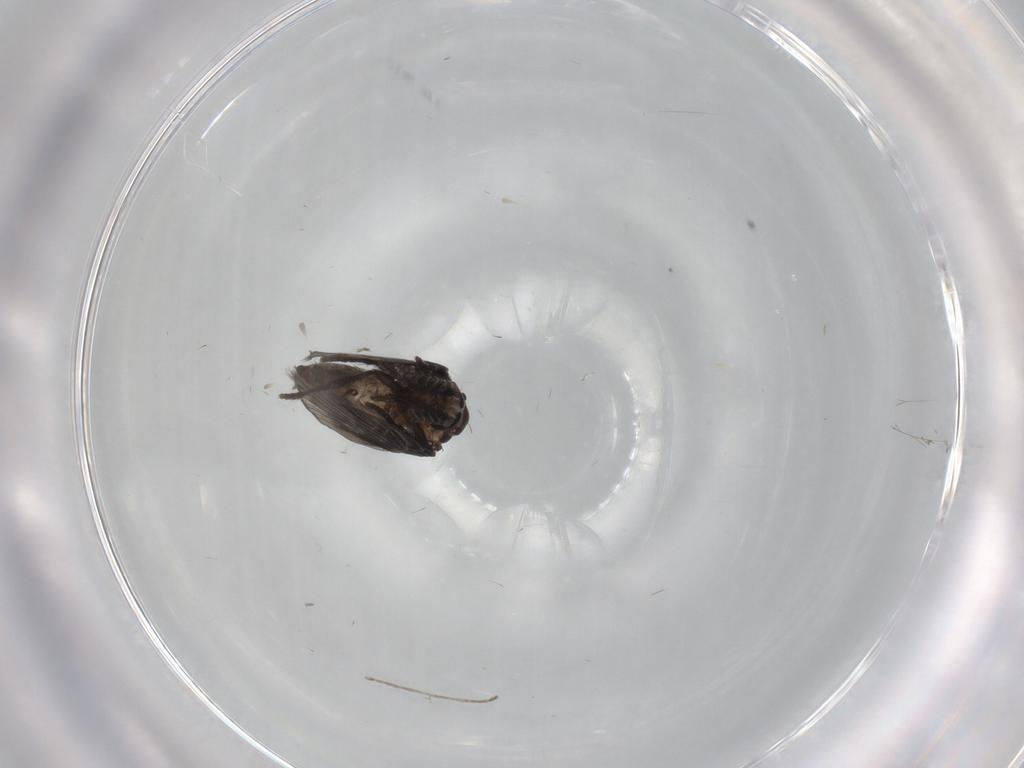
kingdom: Animalia
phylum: Arthropoda
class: Insecta
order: Diptera
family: Psychodidae
